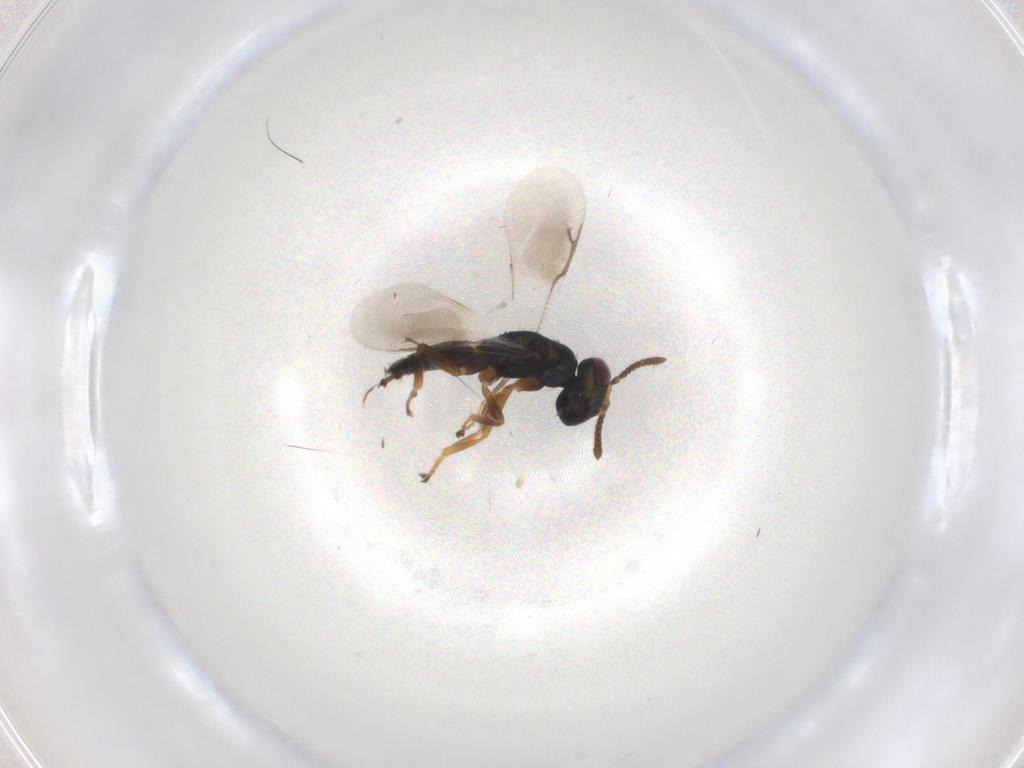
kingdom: Animalia
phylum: Arthropoda
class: Insecta
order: Hymenoptera
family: Pteromalidae
